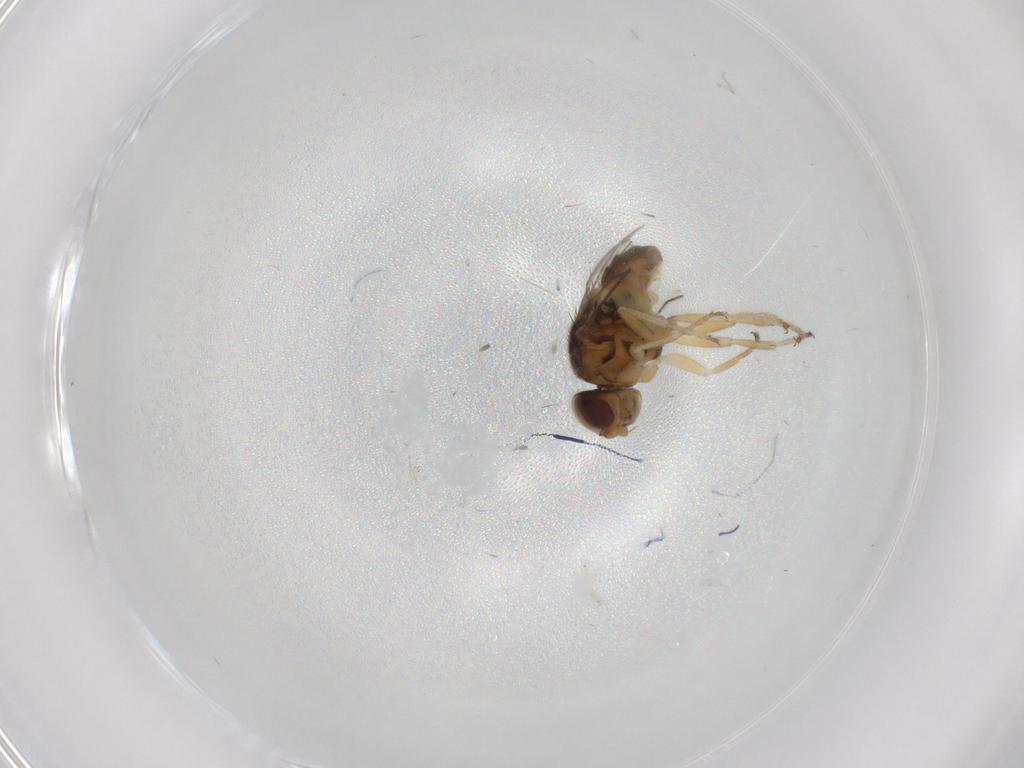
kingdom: Animalia
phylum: Arthropoda
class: Insecta
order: Diptera
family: Chloropidae
